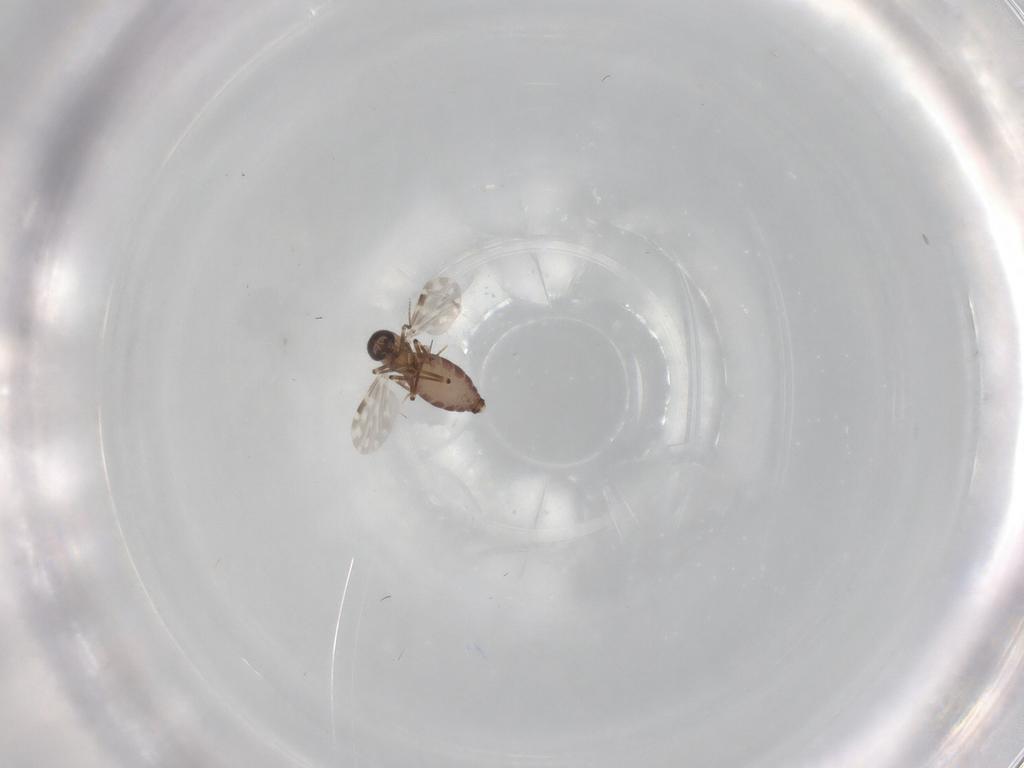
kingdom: Animalia
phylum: Arthropoda
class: Insecta
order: Diptera
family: Ceratopogonidae
